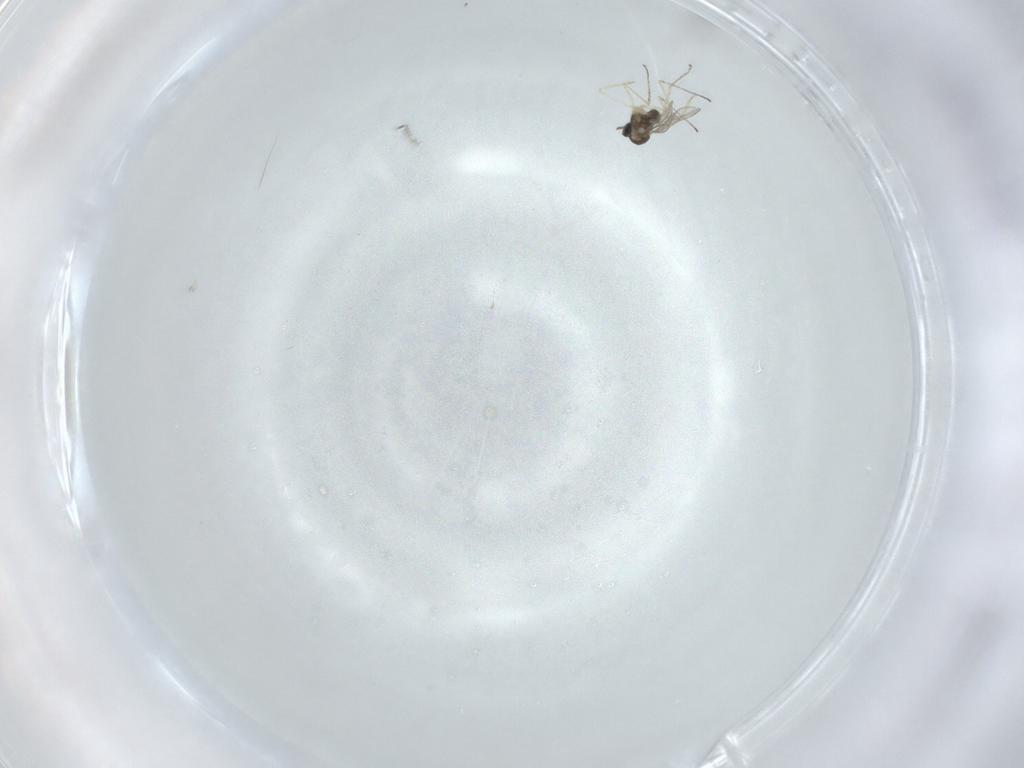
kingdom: Animalia
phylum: Arthropoda
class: Insecta
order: Diptera
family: Cecidomyiidae
